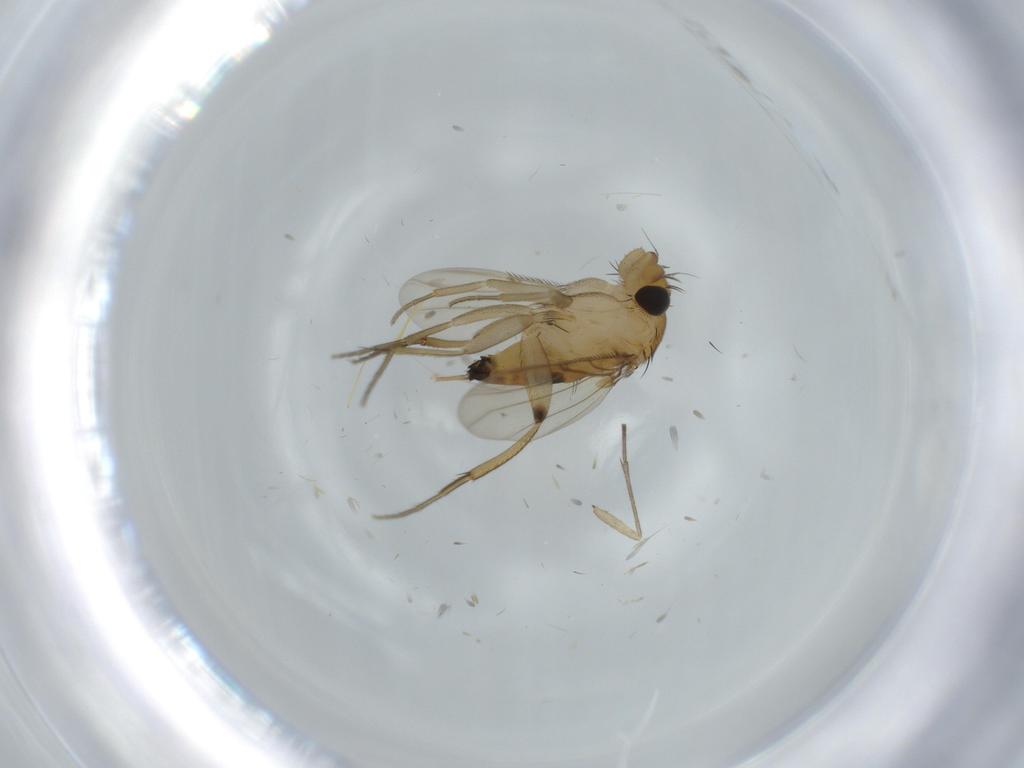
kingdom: Animalia
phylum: Arthropoda
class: Insecta
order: Diptera
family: Phoridae
